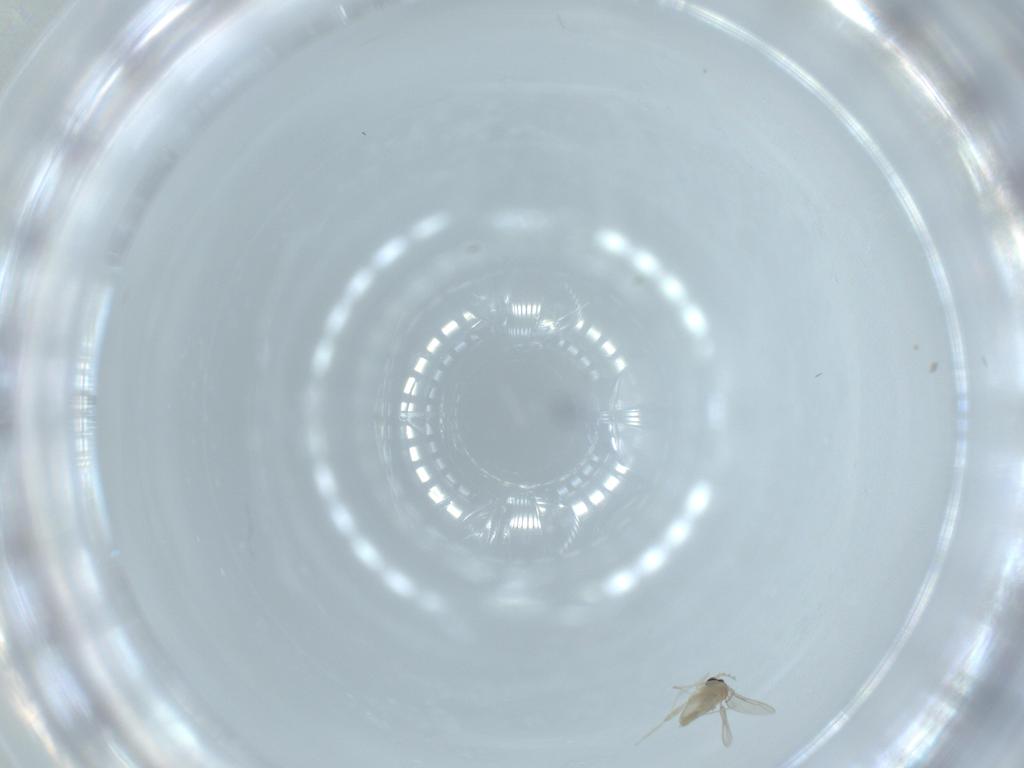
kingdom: Animalia
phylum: Arthropoda
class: Insecta
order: Diptera
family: Cecidomyiidae
